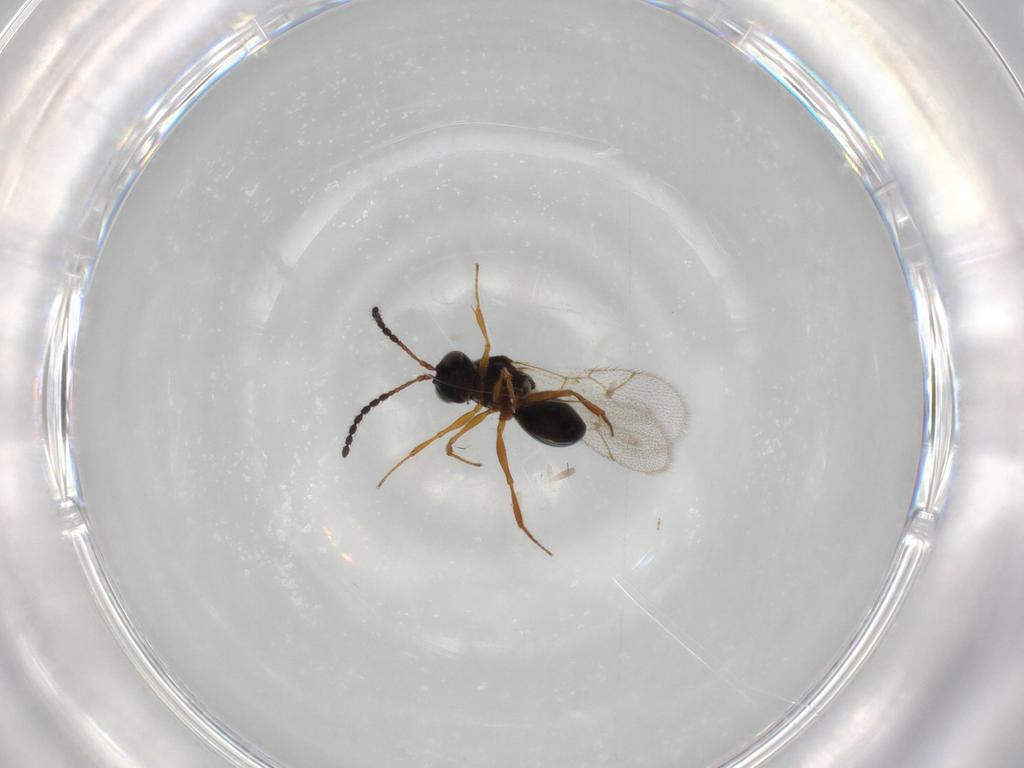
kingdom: Animalia
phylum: Arthropoda
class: Insecta
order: Hymenoptera
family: Figitidae
